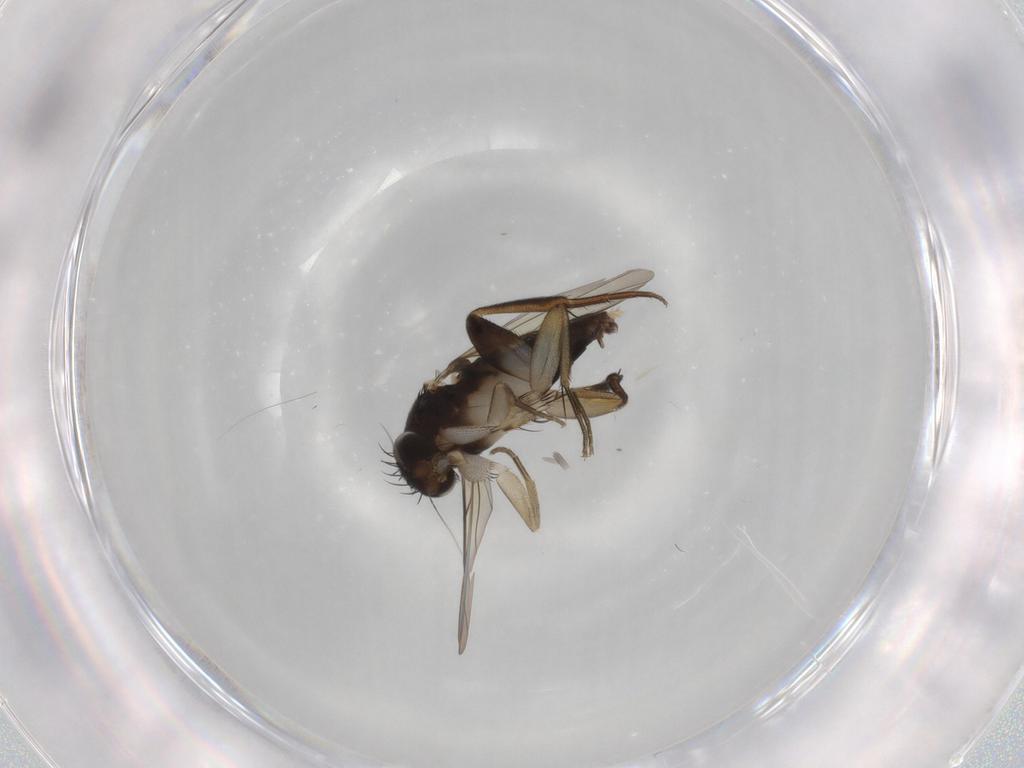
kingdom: Animalia
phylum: Arthropoda
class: Insecta
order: Diptera
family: Phoridae
